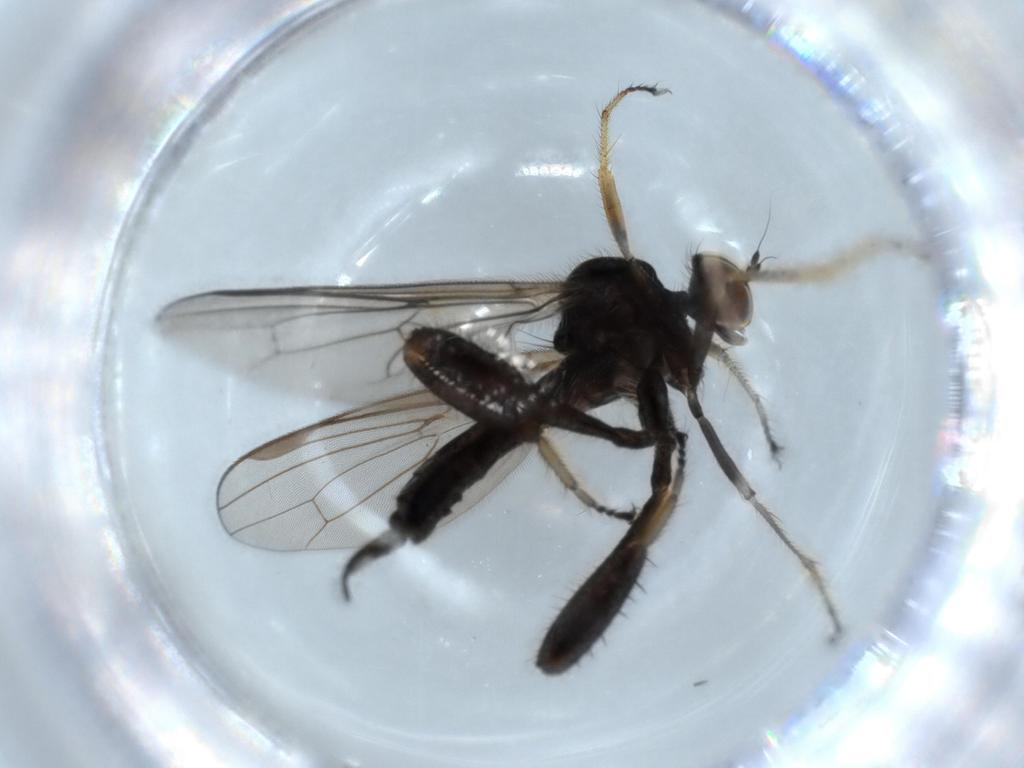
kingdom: Animalia
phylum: Arthropoda
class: Insecta
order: Diptera
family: Hybotidae
